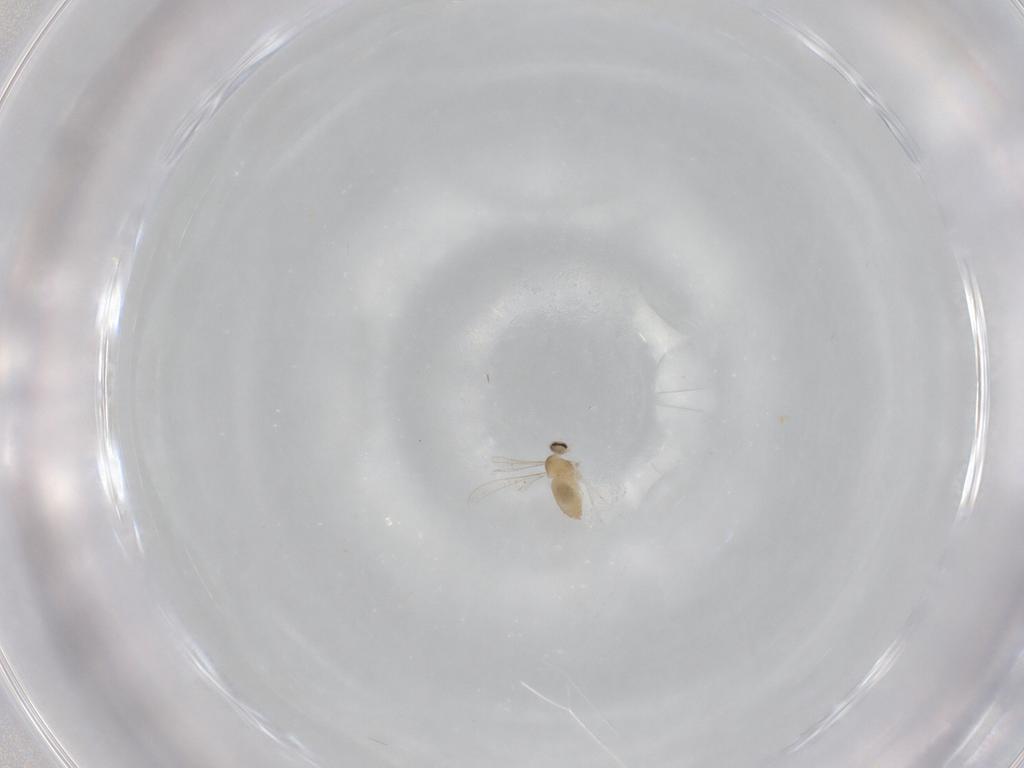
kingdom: Animalia
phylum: Arthropoda
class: Insecta
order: Diptera
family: Cecidomyiidae
